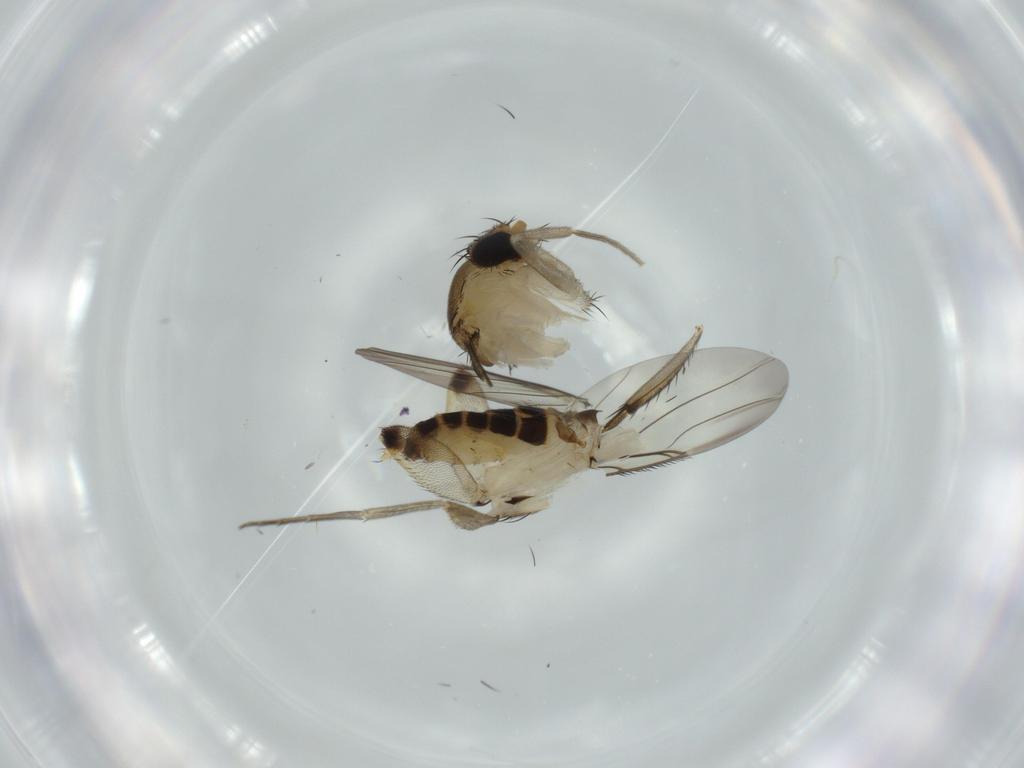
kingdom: Animalia
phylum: Arthropoda
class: Insecta
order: Diptera
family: Phoridae
